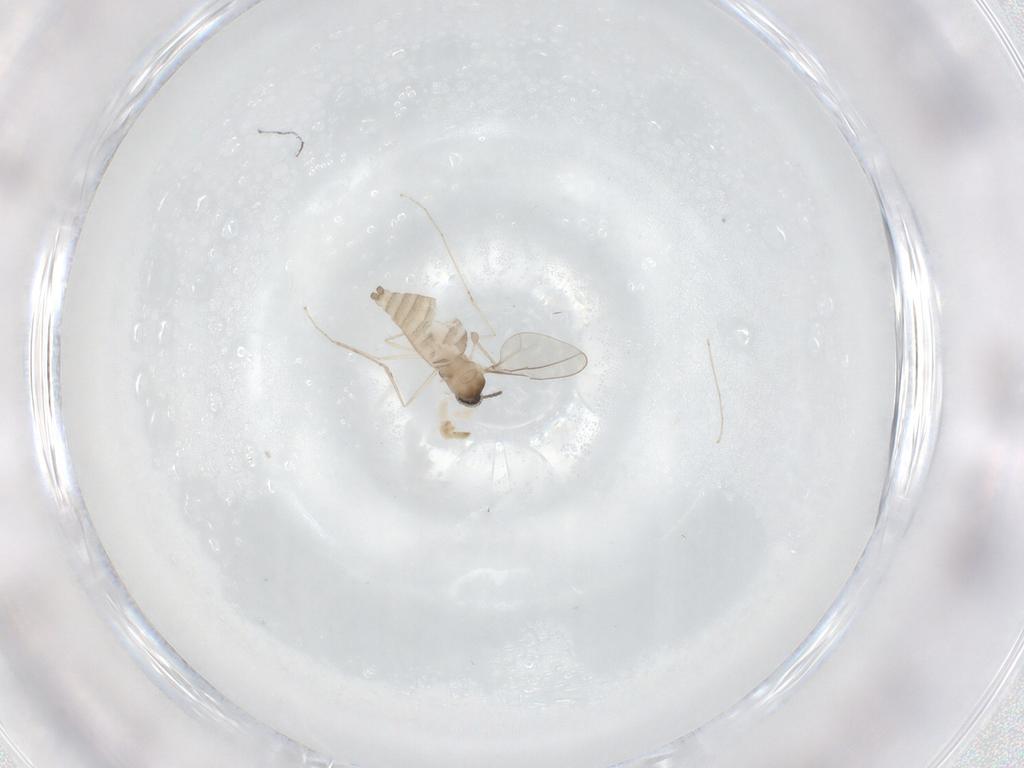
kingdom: Animalia
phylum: Arthropoda
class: Insecta
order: Diptera
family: Cecidomyiidae
